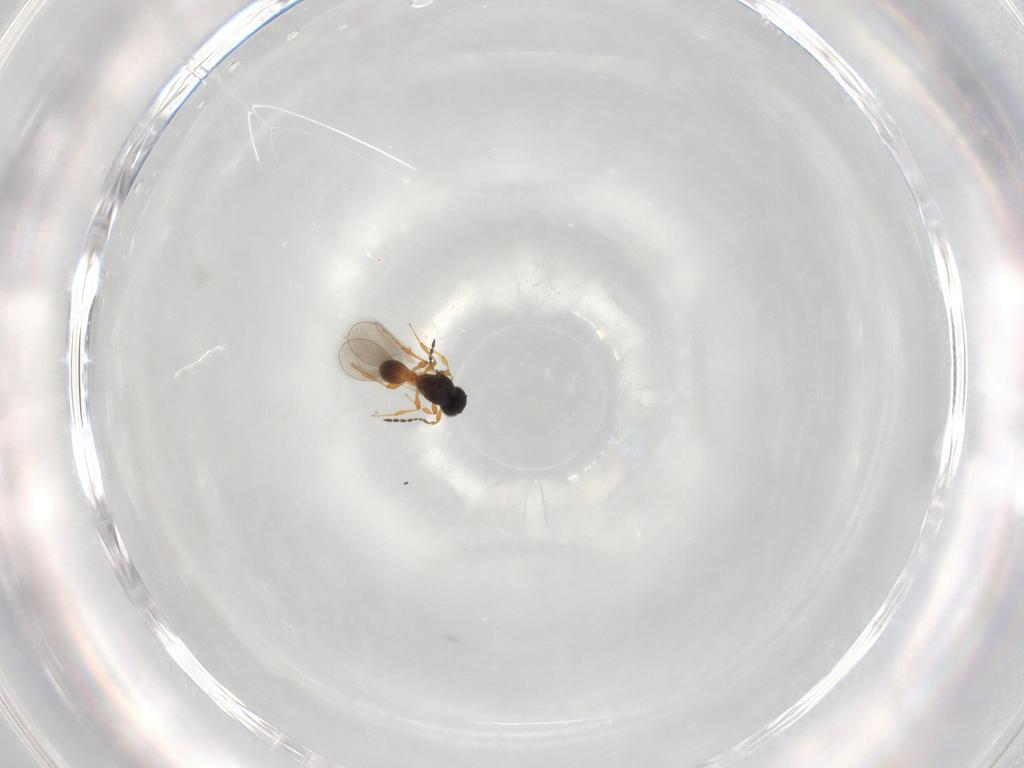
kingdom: Animalia
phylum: Arthropoda
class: Insecta
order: Hymenoptera
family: Platygastridae
